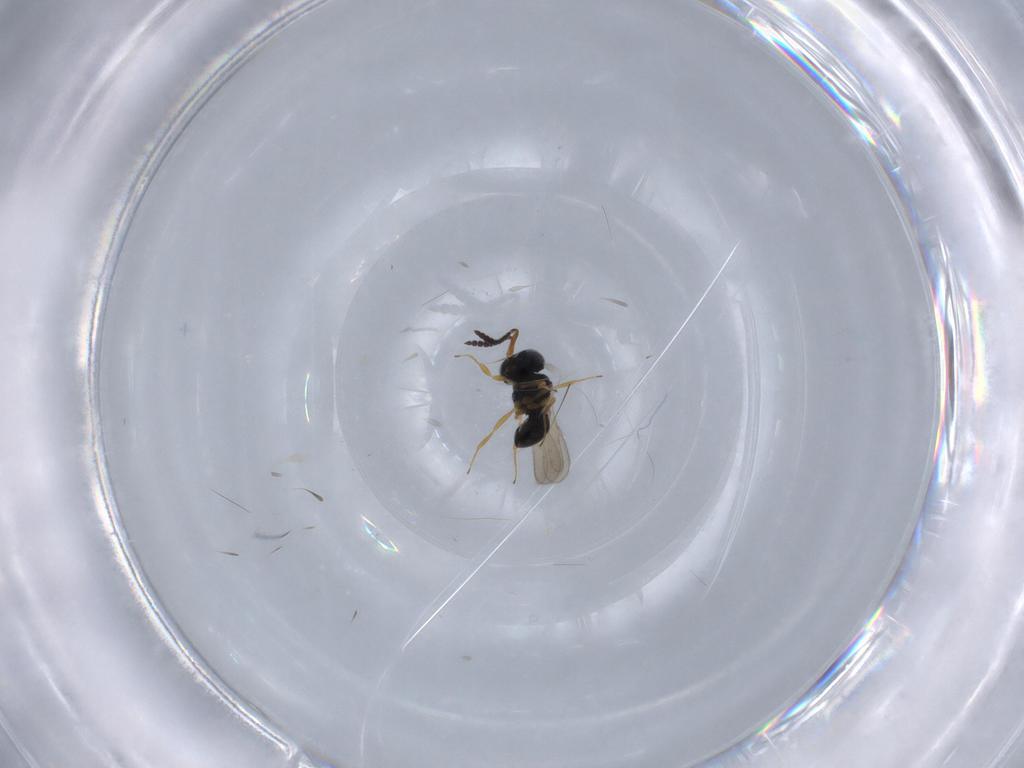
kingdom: Animalia
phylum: Arthropoda
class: Insecta
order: Hymenoptera
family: Scelionidae
